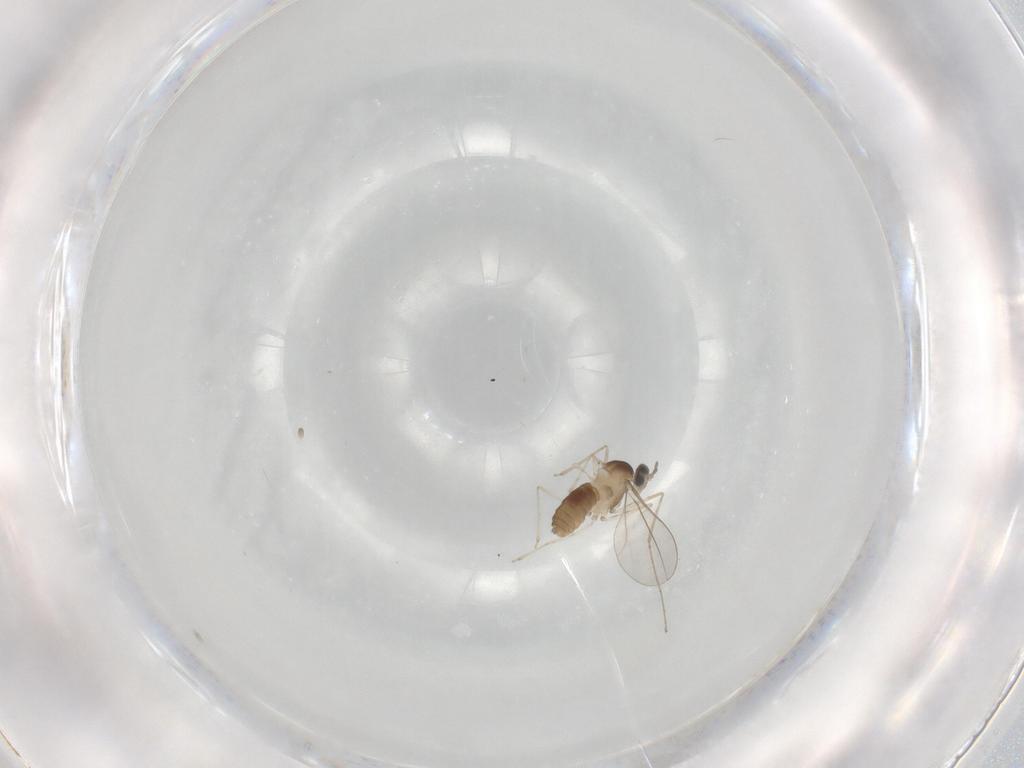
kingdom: Animalia
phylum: Arthropoda
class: Insecta
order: Diptera
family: Cecidomyiidae
